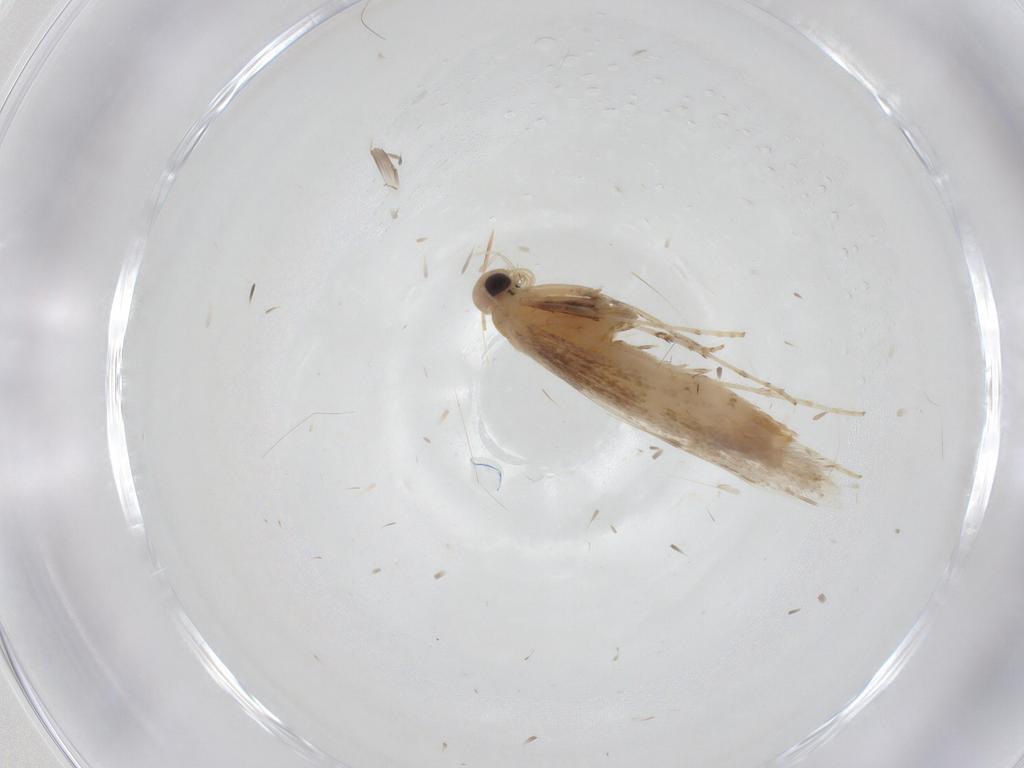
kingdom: Animalia
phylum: Arthropoda
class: Insecta
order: Lepidoptera
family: Gracillariidae
